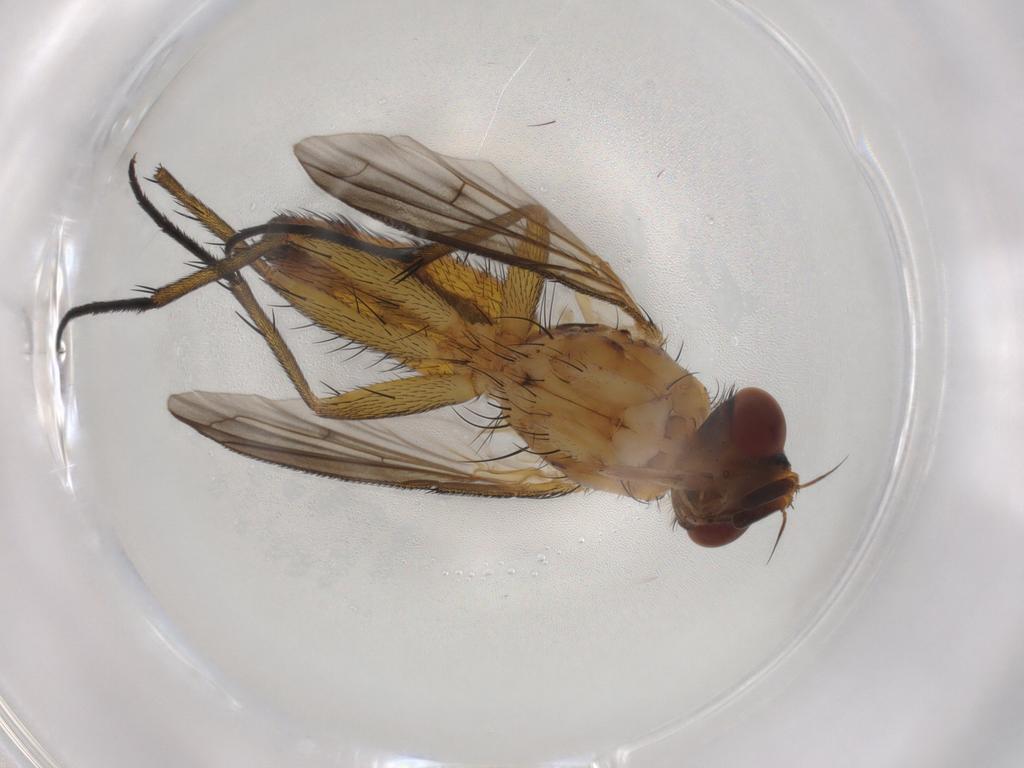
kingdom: Animalia
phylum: Arthropoda
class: Insecta
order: Diptera
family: Tachinidae
